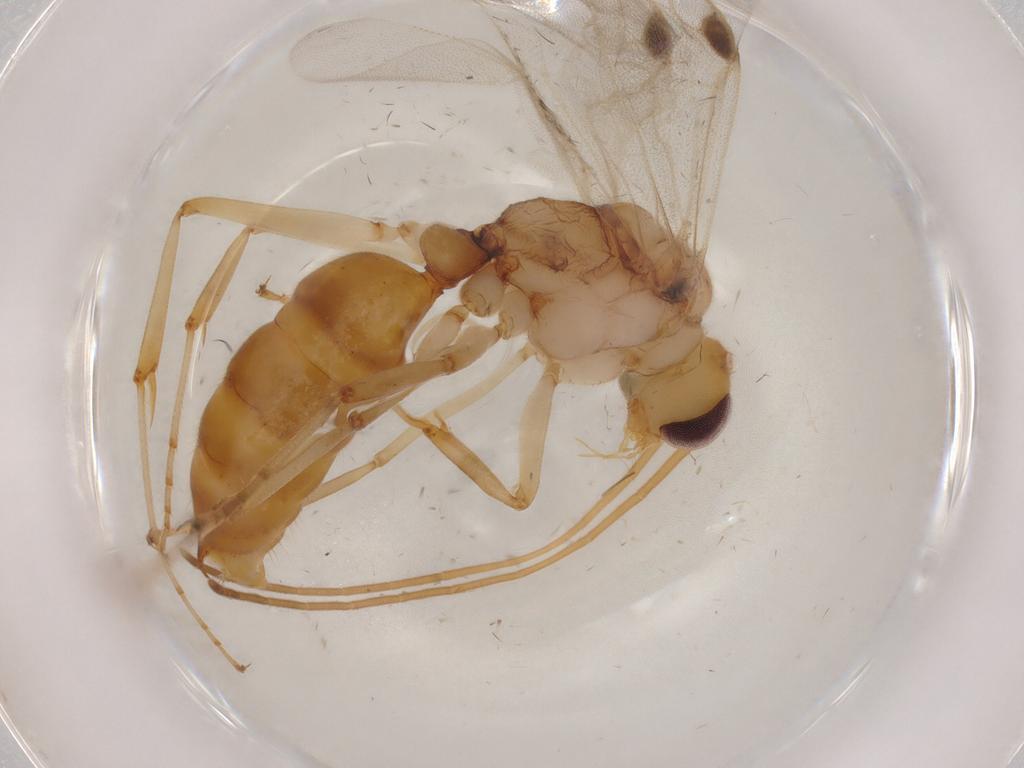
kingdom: Animalia
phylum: Arthropoda
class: Insecta
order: Hymenoptera
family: Formicidae
